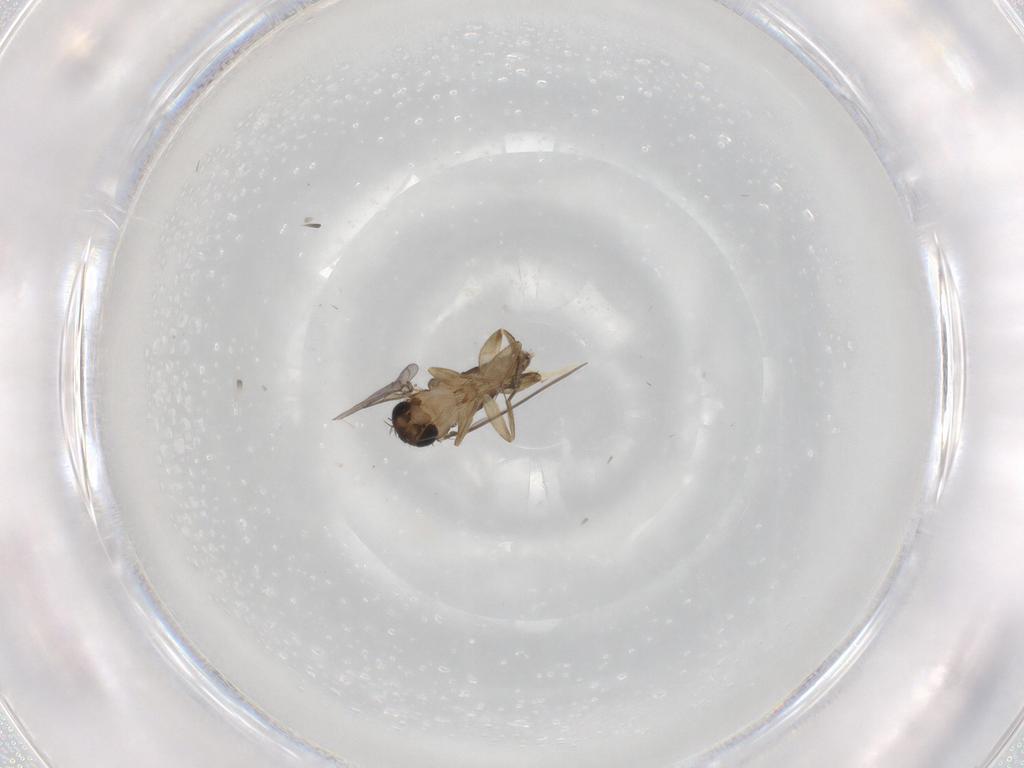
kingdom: Animalia
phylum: Arthropoda
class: Insecta
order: Diptera
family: Phoridae
